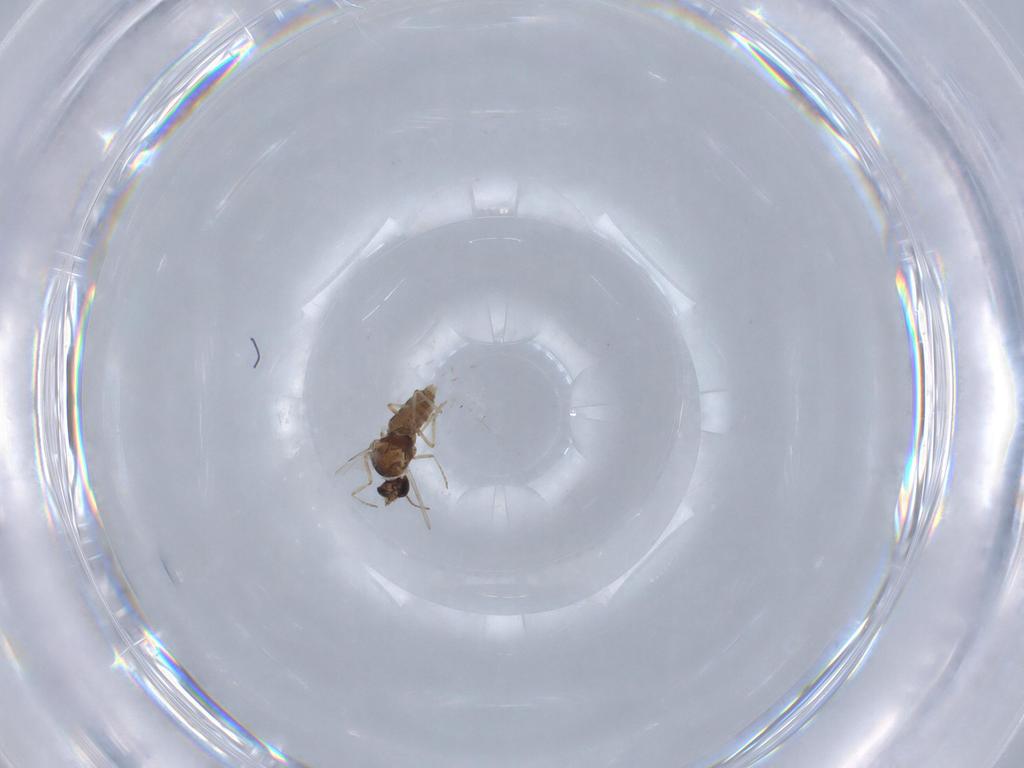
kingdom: Animalia
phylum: Arthropoda
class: Insecta
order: Diptera
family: Ceratopogonidae
